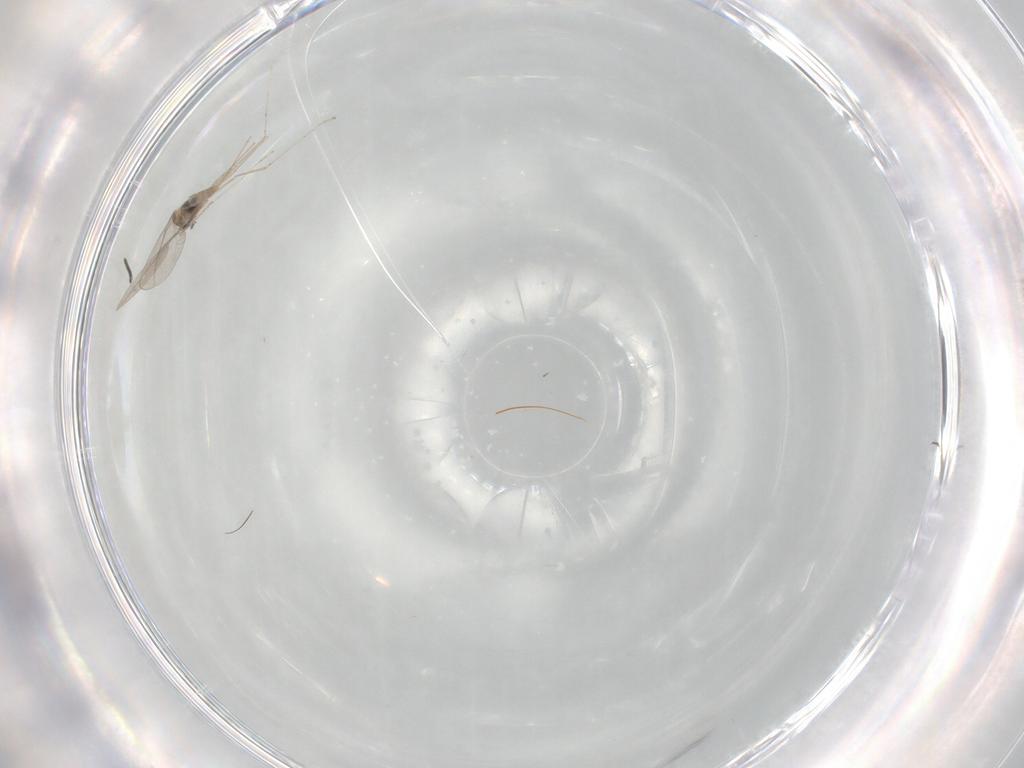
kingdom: Animalia
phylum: Arthropoda
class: Insecta
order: Diptera
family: Cecidomyiidae
